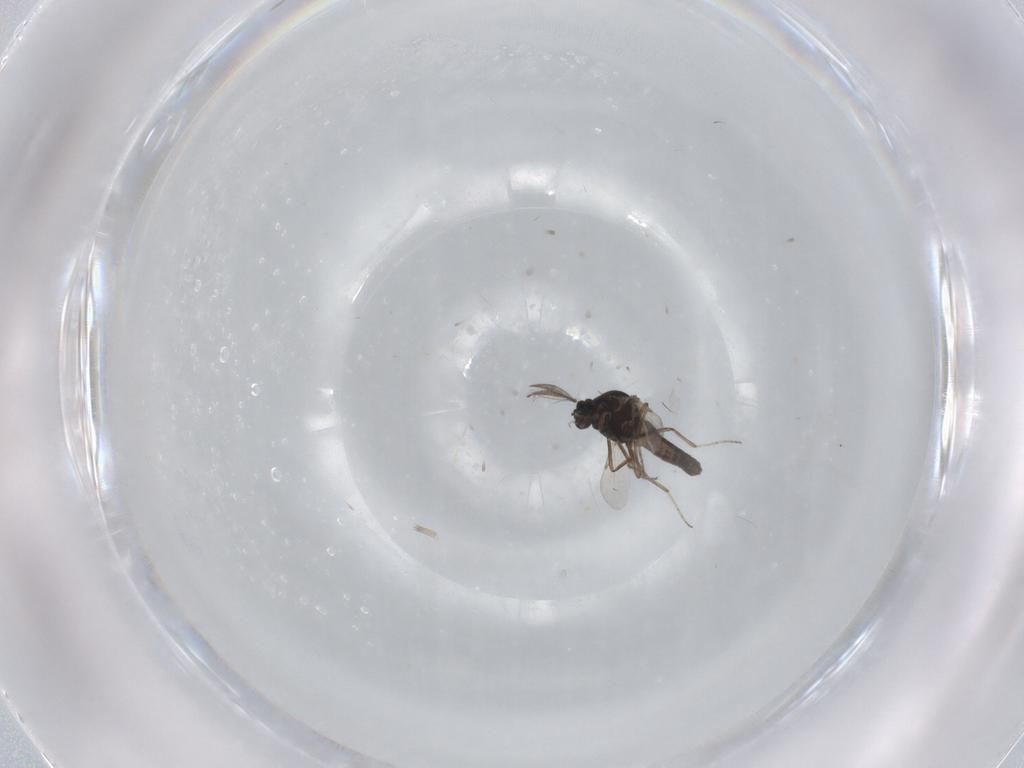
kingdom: Animalia
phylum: Arthropoda
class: Insecta
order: Diptera
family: Ceratopogonidae
